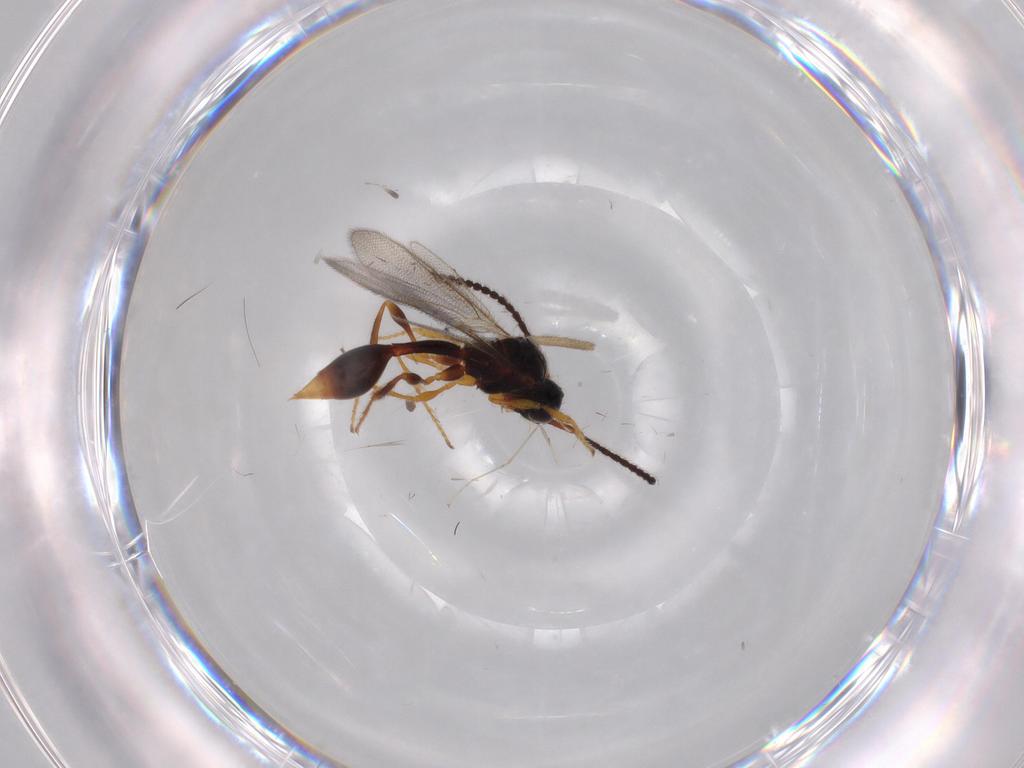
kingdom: Animalia
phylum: Arthropoda
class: Insecta
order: Hymenoptera
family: Diapriidae
